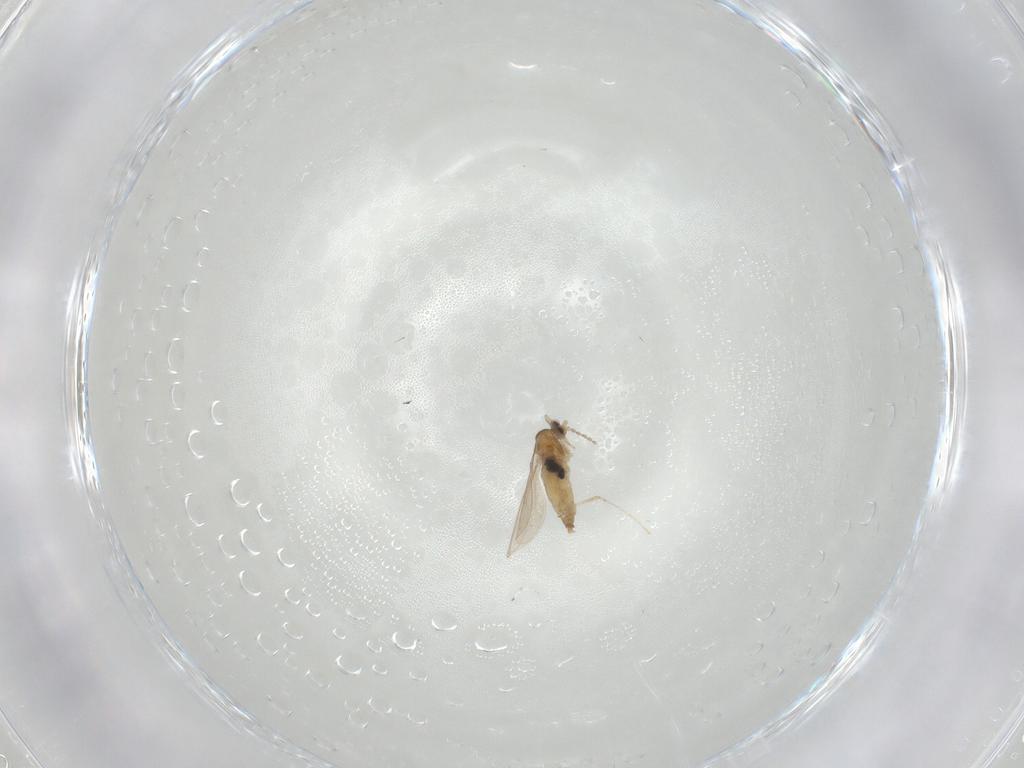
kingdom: Animalia
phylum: Arthropoda
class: Insecta
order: Diptera
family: Cecidomyiidae
